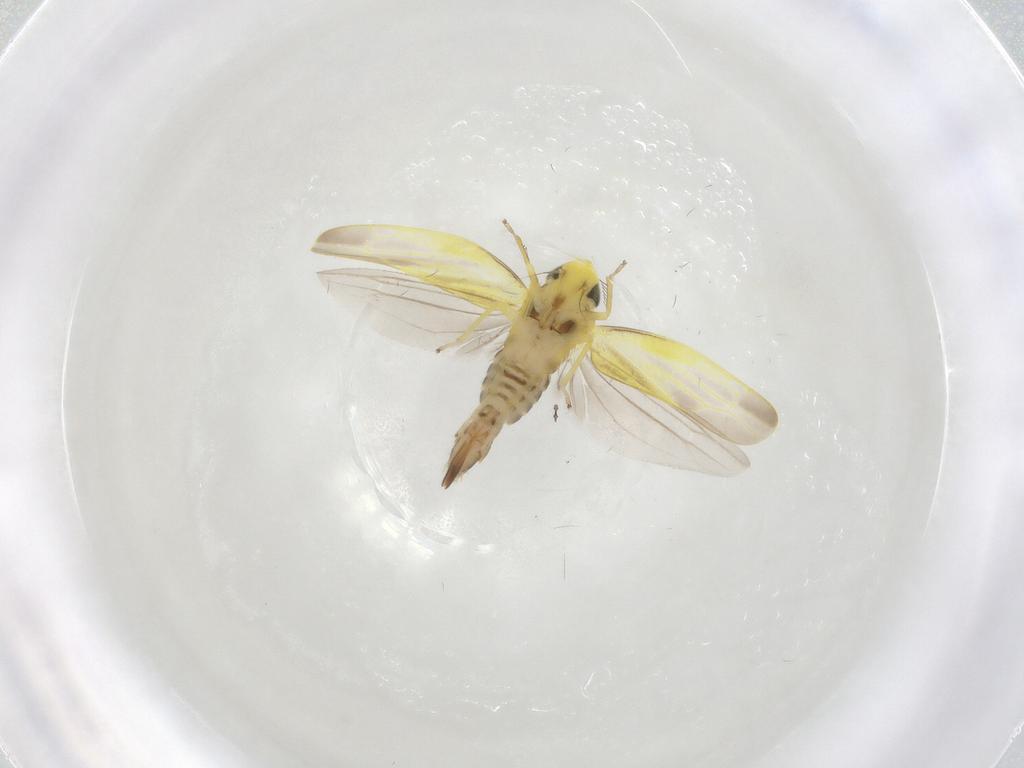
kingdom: Animalia
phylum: Arthropoda
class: Insecta
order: Hemiptera
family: Cicadellidae
